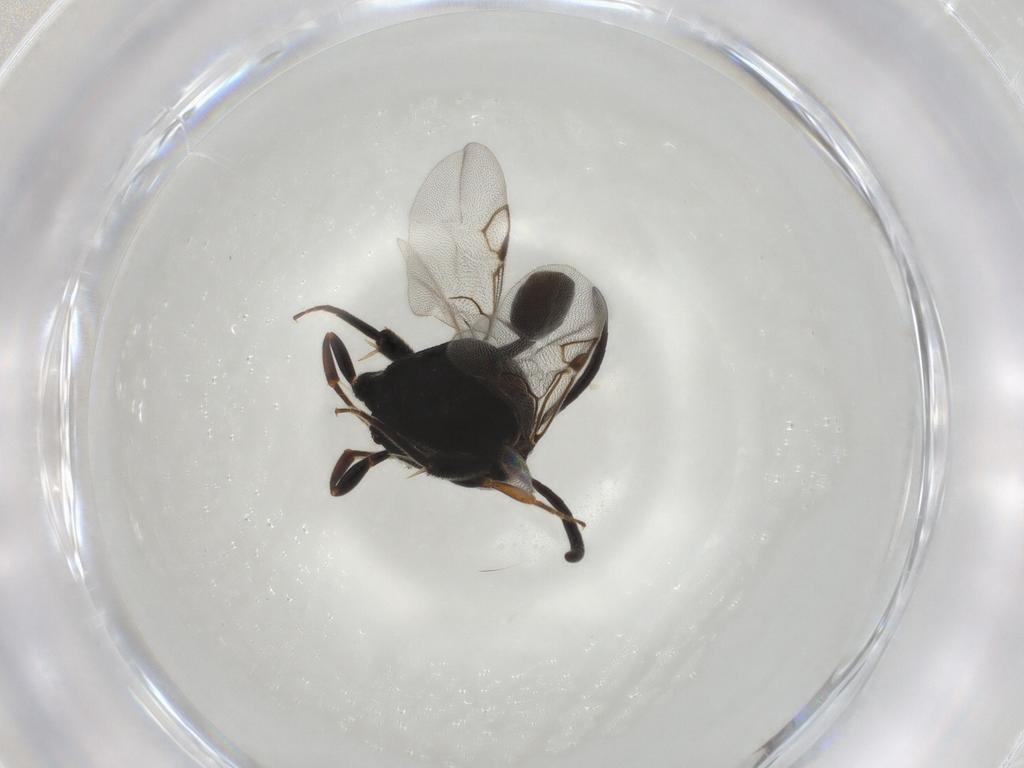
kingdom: Animalia
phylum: Arthropoda
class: Insecta
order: Hymenoptera
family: Evaniidae
